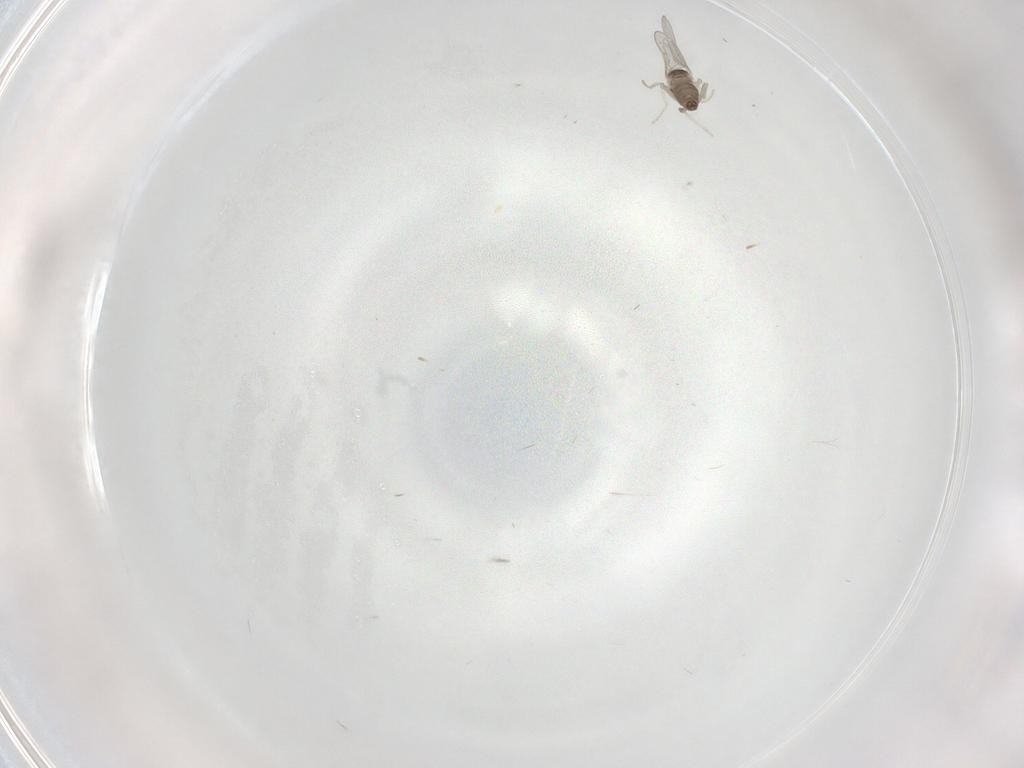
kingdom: Animalia
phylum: Arthropoda
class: Insecta
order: Diptera
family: Cecidomyiidae
